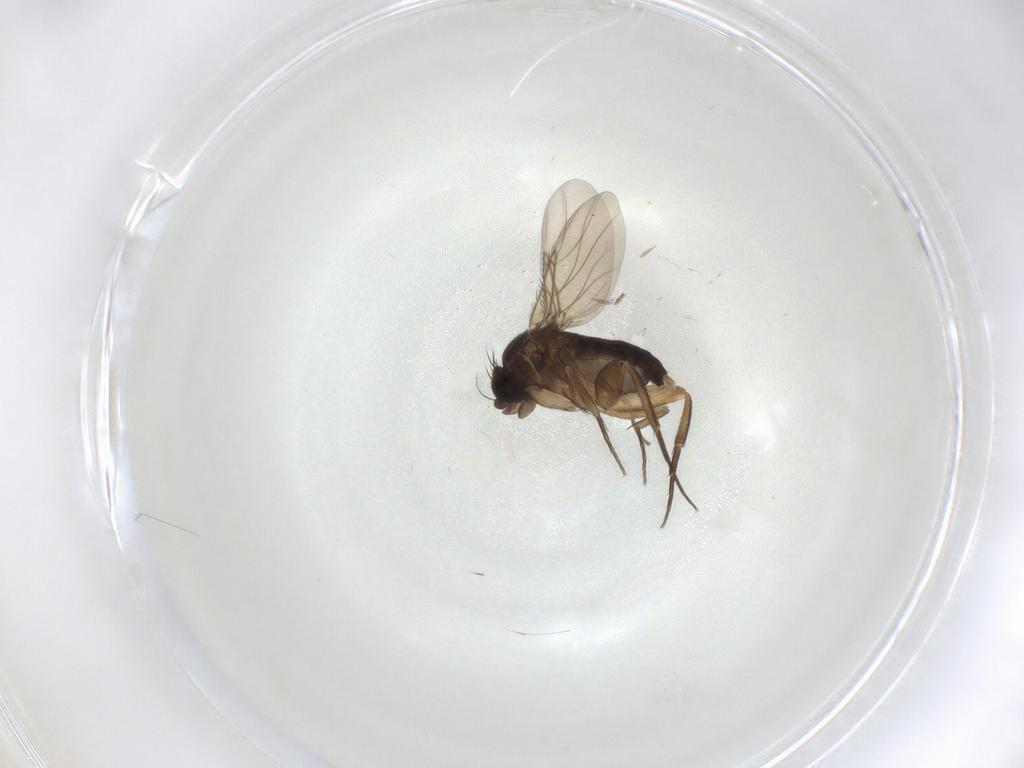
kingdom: Animalia
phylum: Arthropoda
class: Insecta
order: Diptera
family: Phoridae
